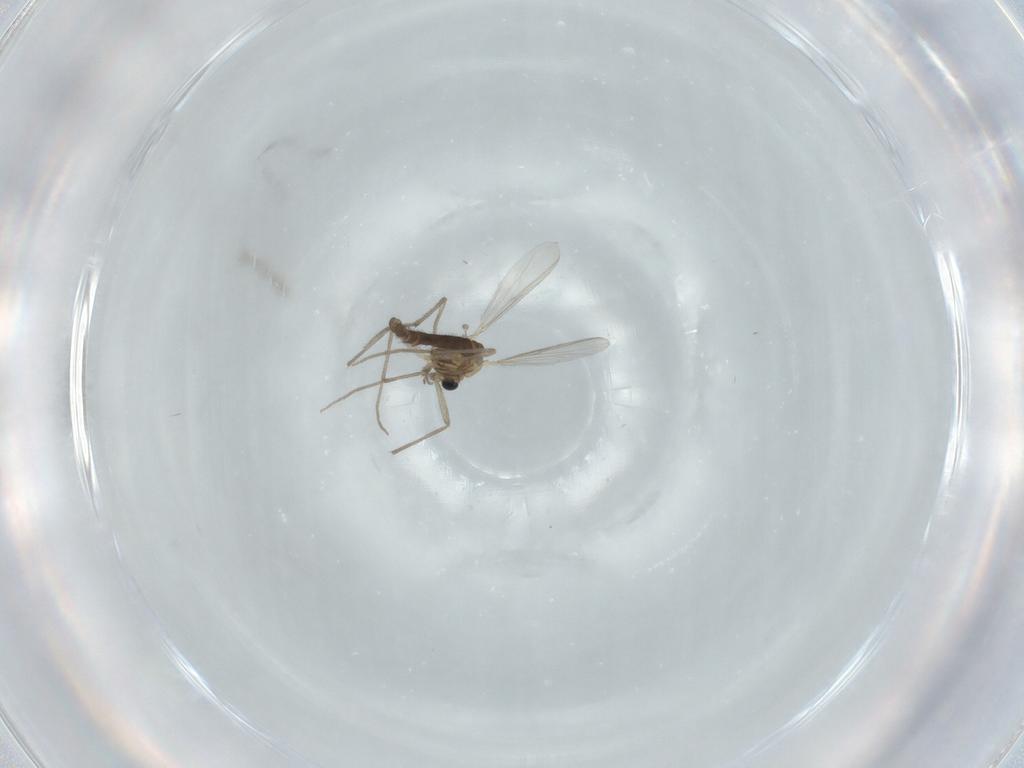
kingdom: Animalia
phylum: Arthropoda
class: Insecta
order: Diptera
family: Chironomidae
